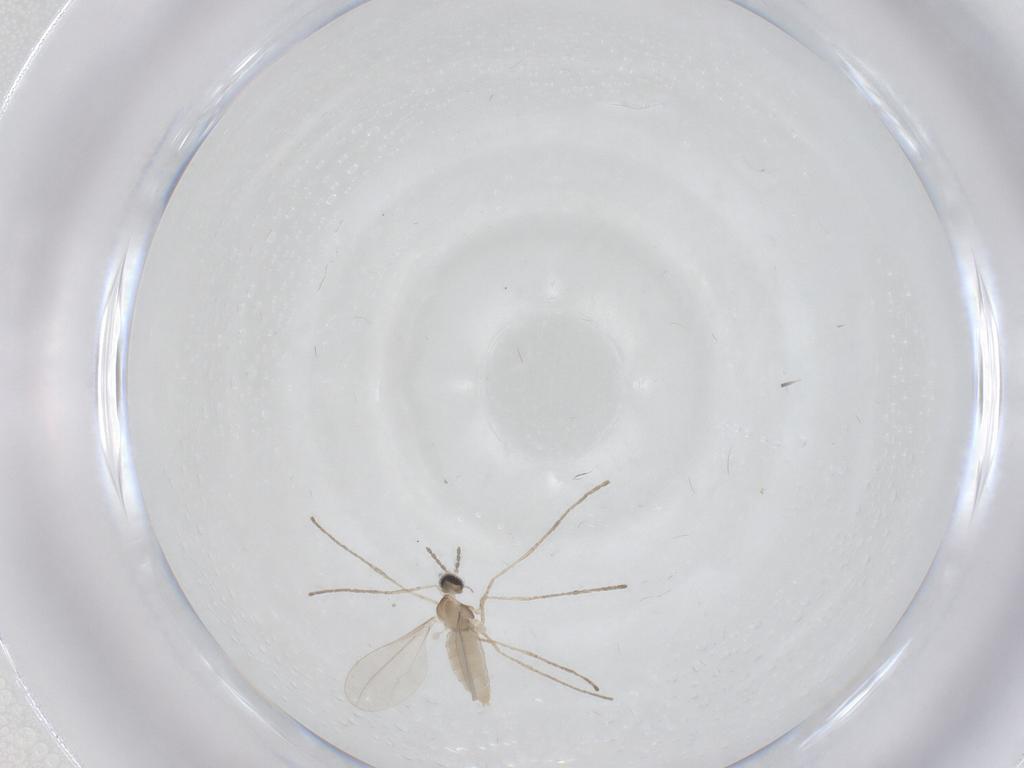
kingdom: Animalia
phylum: Arthropoda
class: Insecta
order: Diptera
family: Cecidomyiidae
